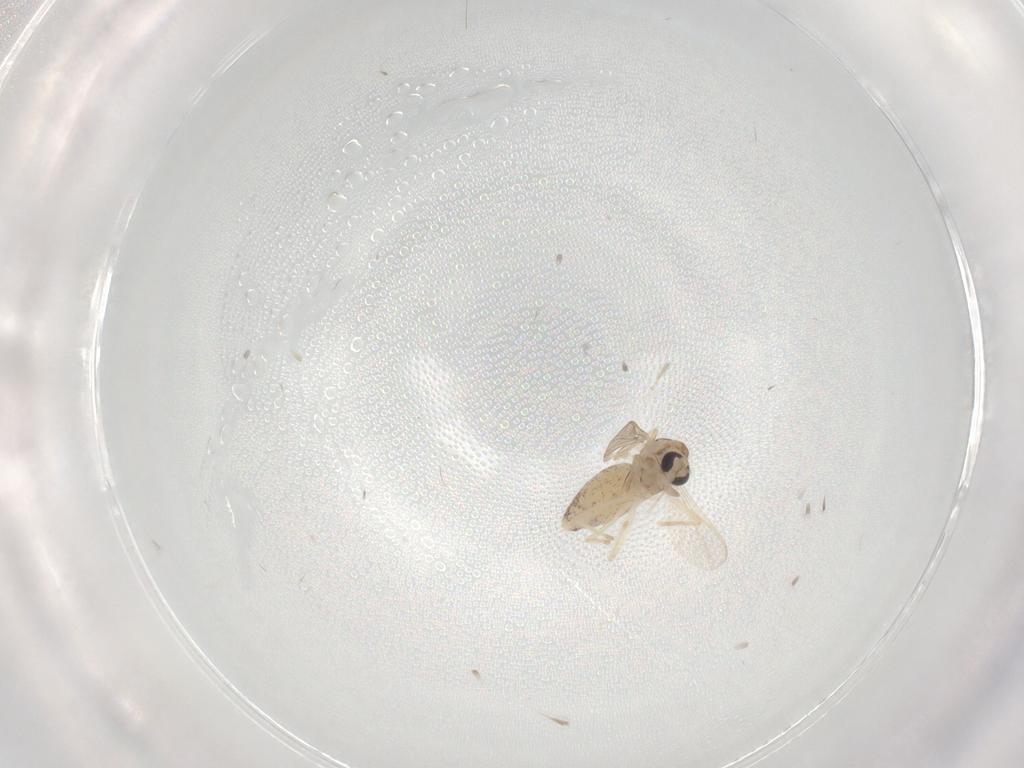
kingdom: Animalia
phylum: Arthropoda
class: Insecta
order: Diptera
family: Chironomidae
